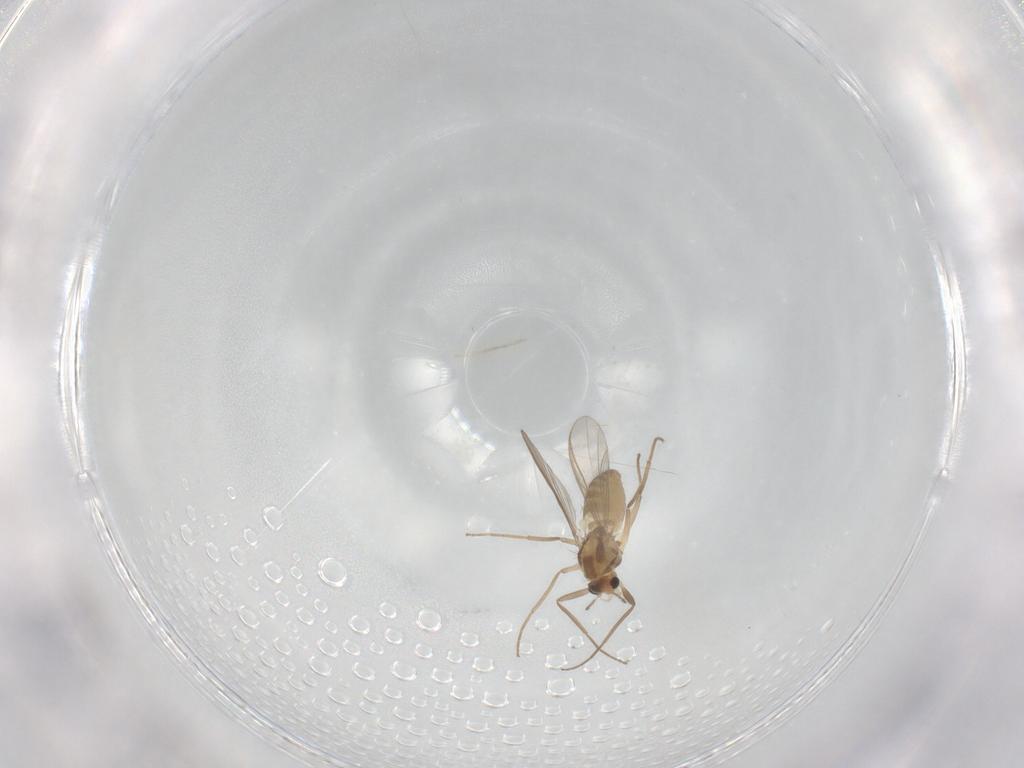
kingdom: Animalia
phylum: Arthropoda
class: Insecta
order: Diptera
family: Chironomidae
